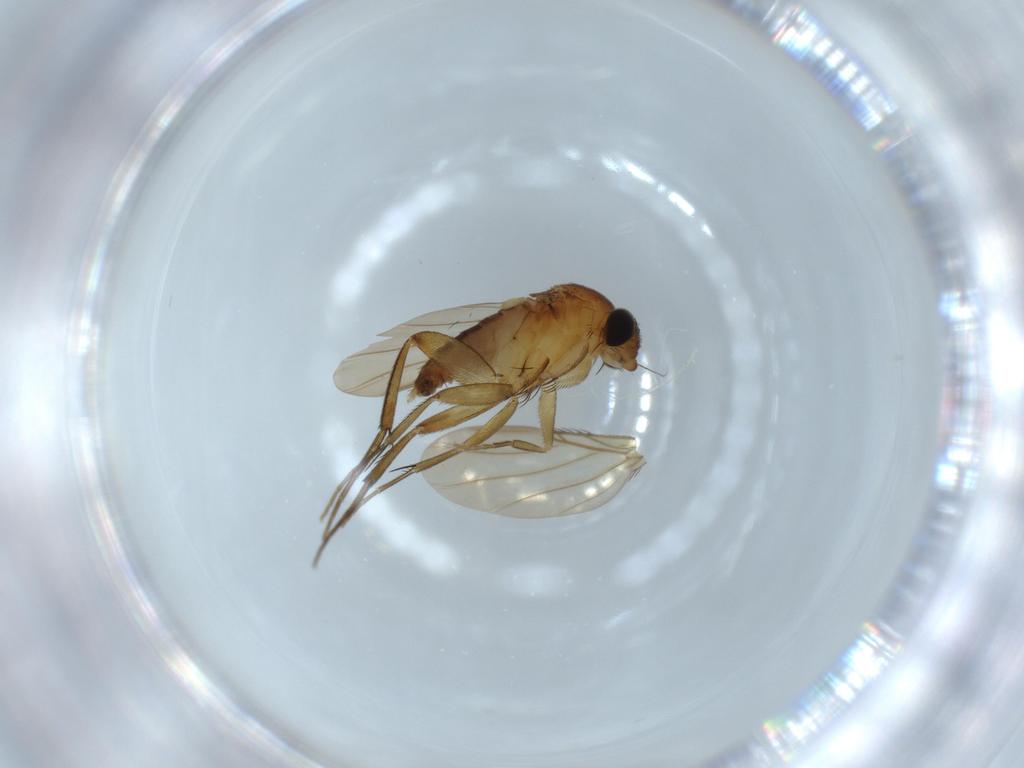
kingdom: Animalia
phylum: Arthropoda
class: Insecta
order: Diptera
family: Phoridae
